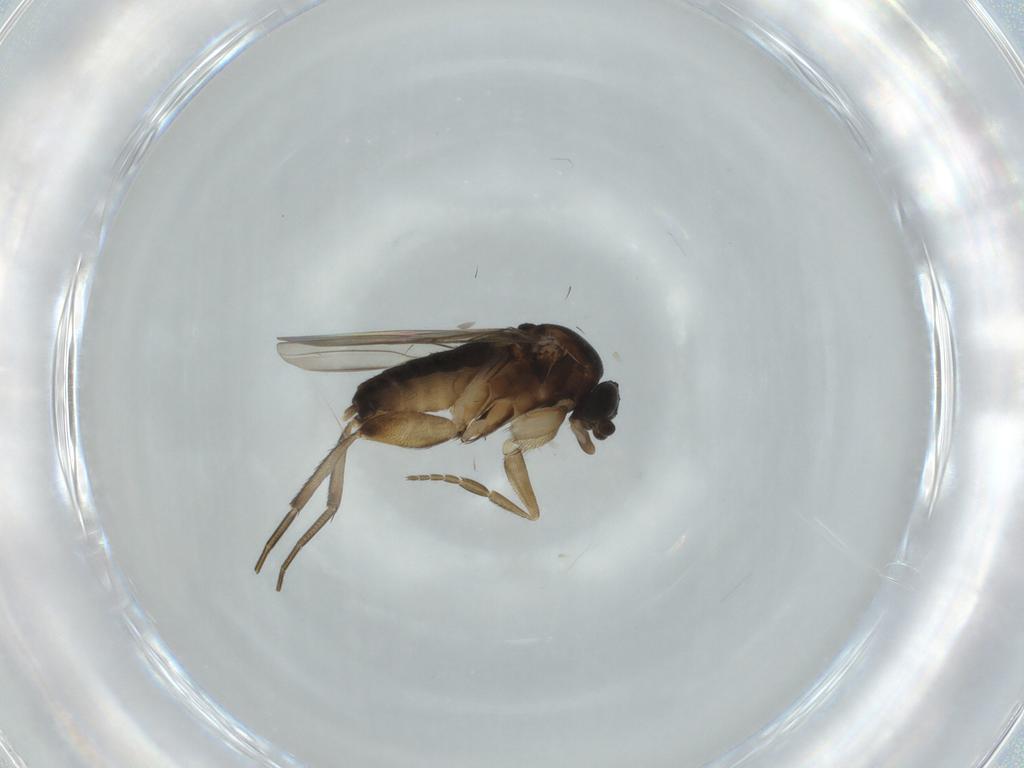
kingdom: Animalia
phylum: Arthropoda
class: Insecta
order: Diptera
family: Phoridae
